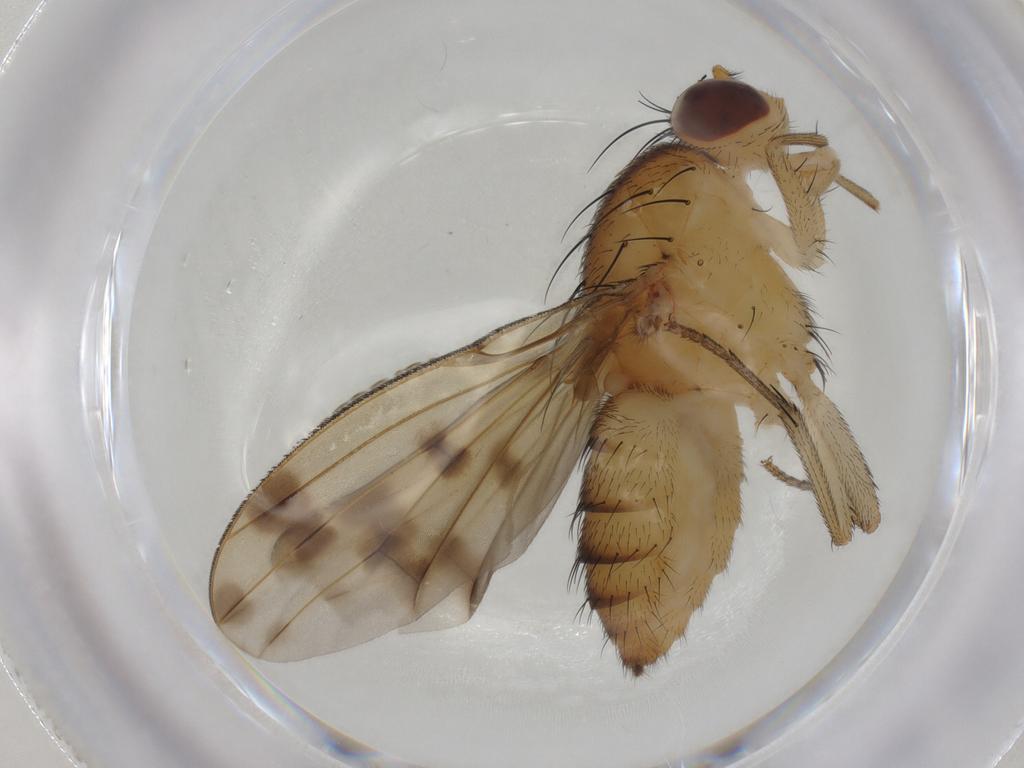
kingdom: Animalia
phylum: Arthropoda
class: Insecta
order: Diptera
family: Lauxaniidae
